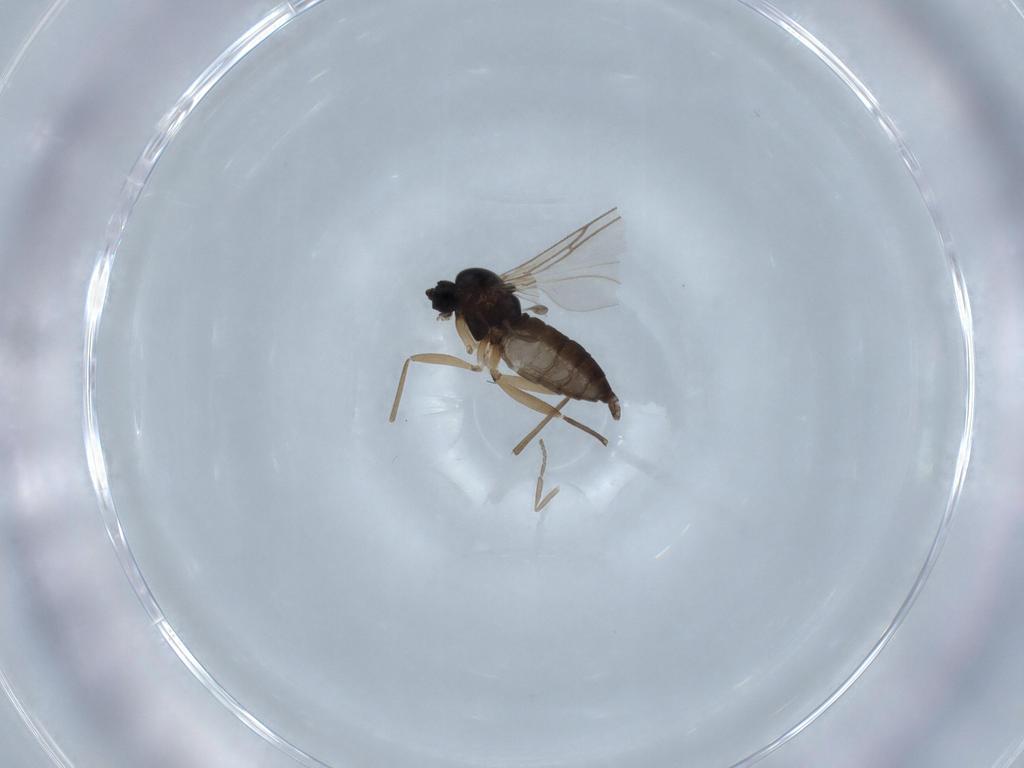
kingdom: Animalia
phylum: Arthropoda
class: Insecta
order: Diptera
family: Sciaridae
